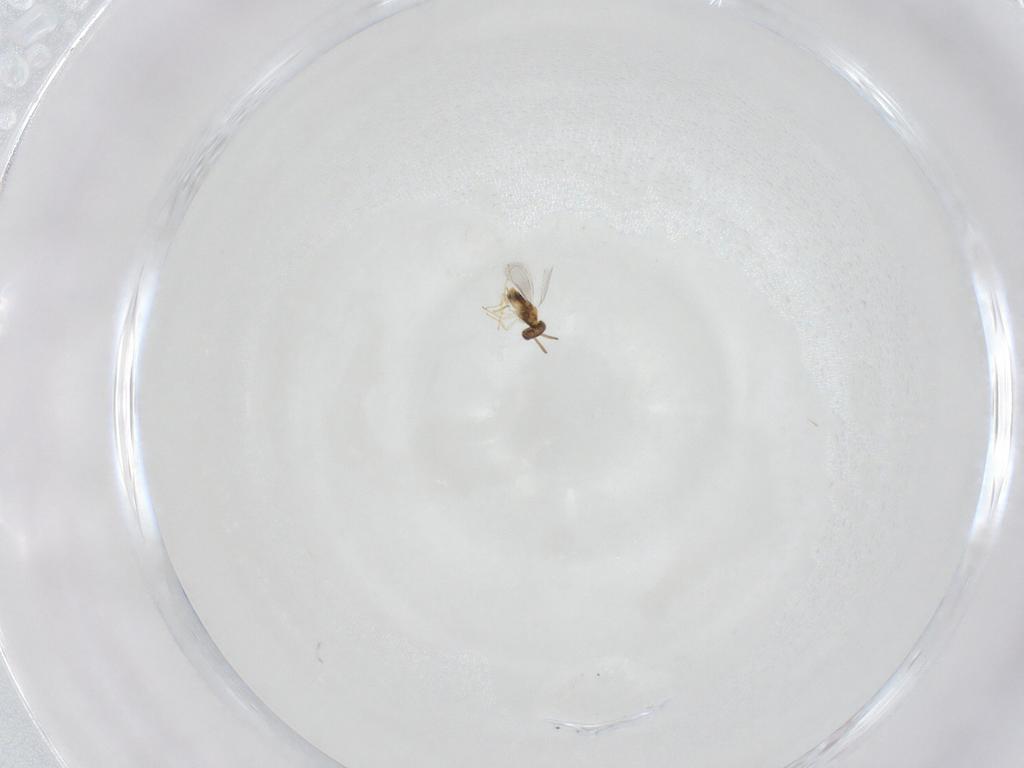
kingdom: Animalia
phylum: Arthropoda
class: Insecta
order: Hymenoptera
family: Aphelinidae
